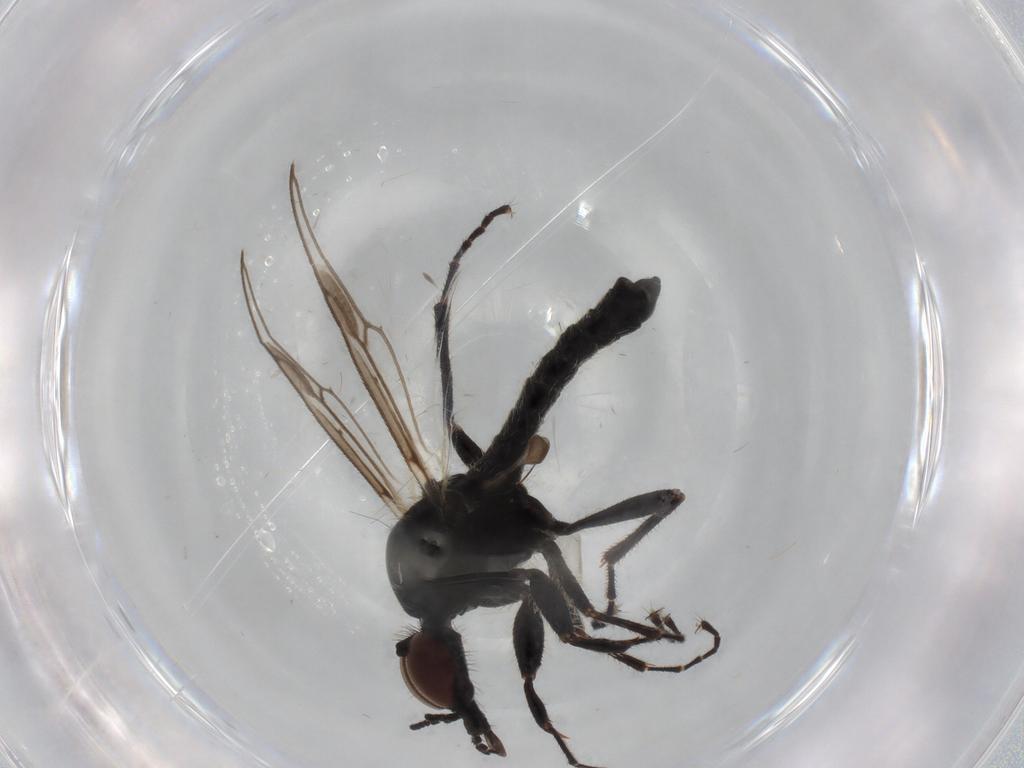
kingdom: Animalia
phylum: Arthropoda
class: Insecta
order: Diptera
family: Bibionidae
